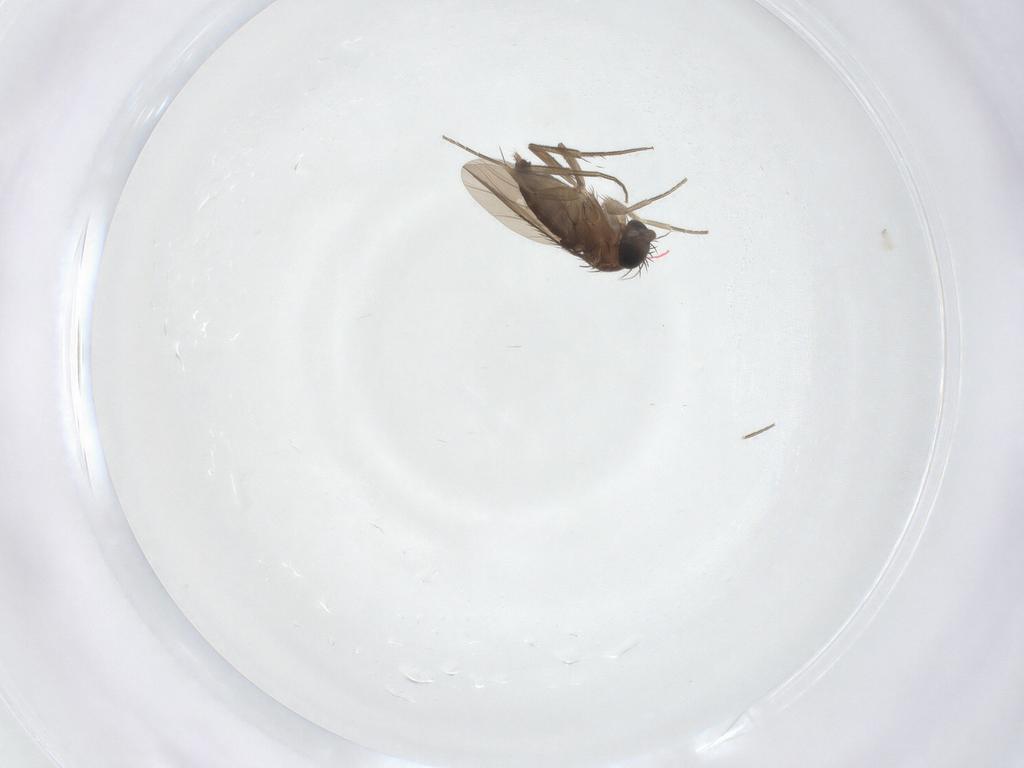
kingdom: Animalia
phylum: Arthropoda
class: Insecta
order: Diptera
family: Phoridae
